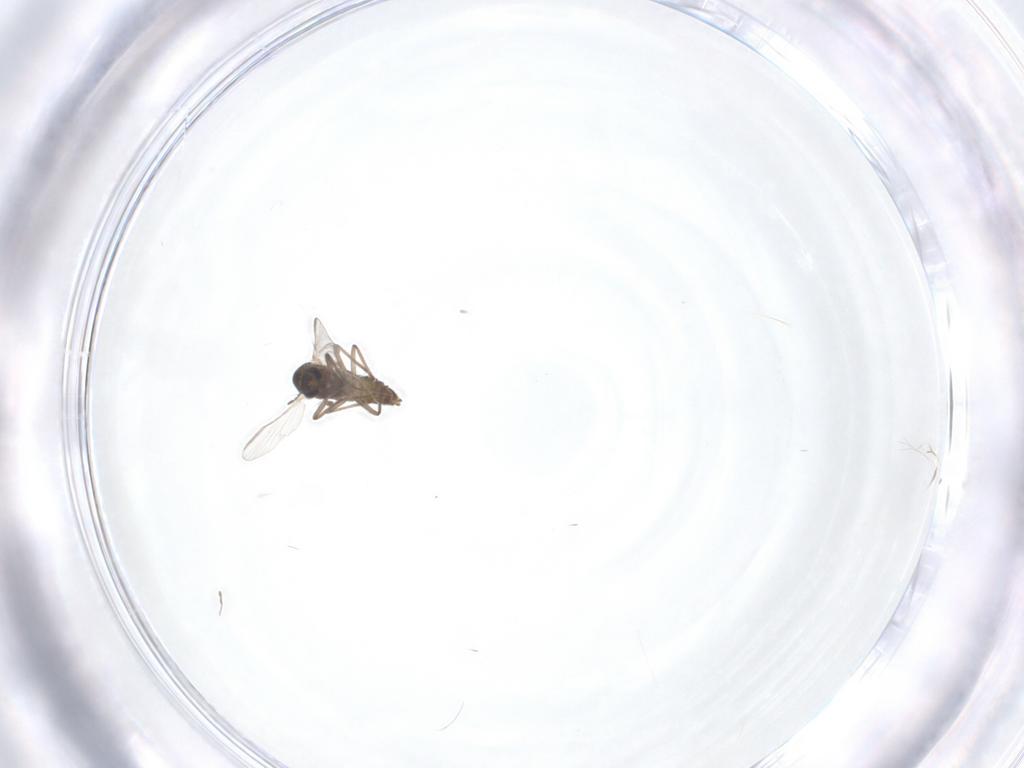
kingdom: Animalia
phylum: Arthropoda
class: Insecta
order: Diptera
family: Chironomidae
